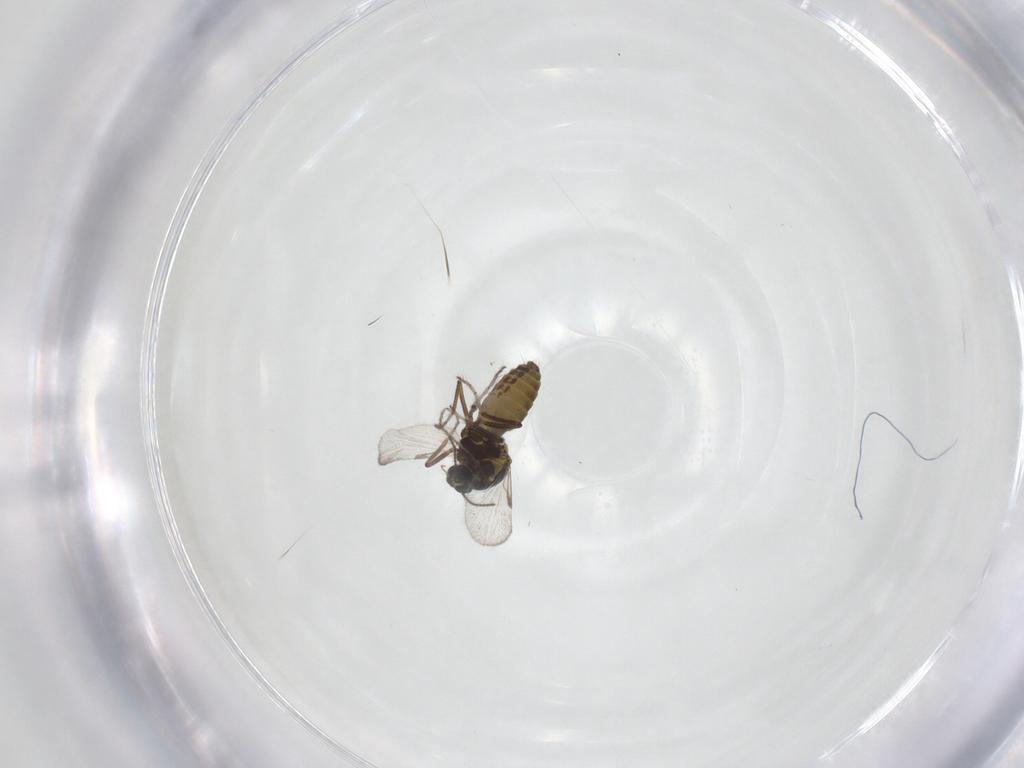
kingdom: Animalia
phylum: Arthropoda
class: Insecta
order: Diptera
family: Ceratopogonidae
